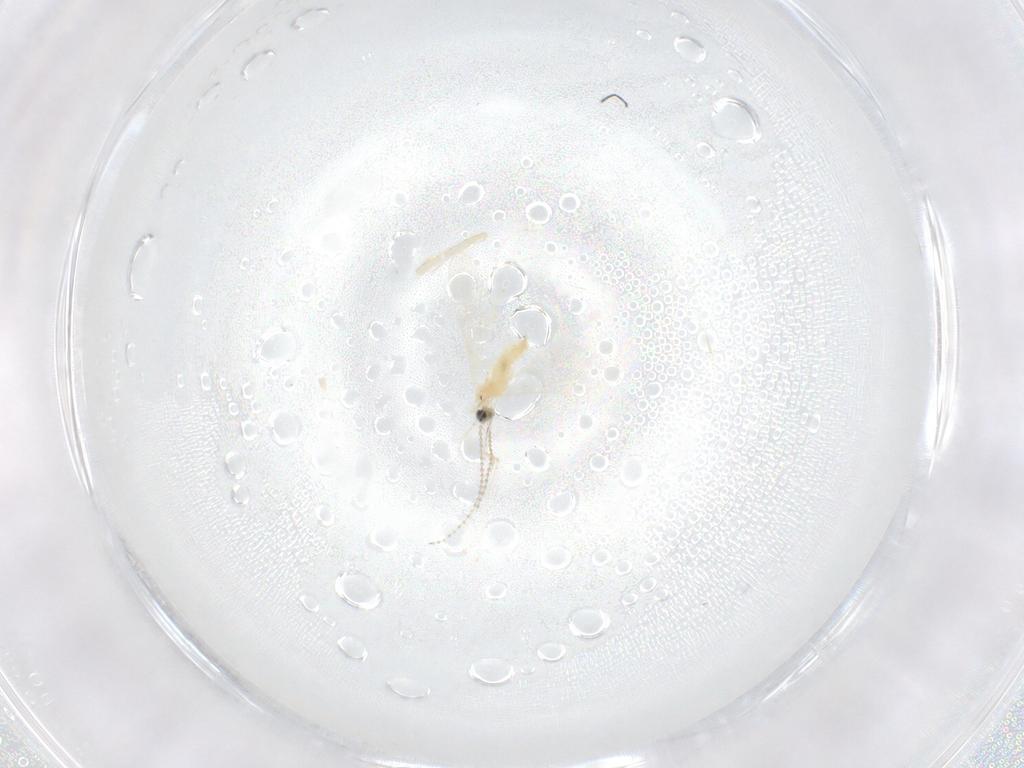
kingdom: Animalia
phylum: Arthropoda
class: Insecta
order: Diptera
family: Cecidomyiidae
